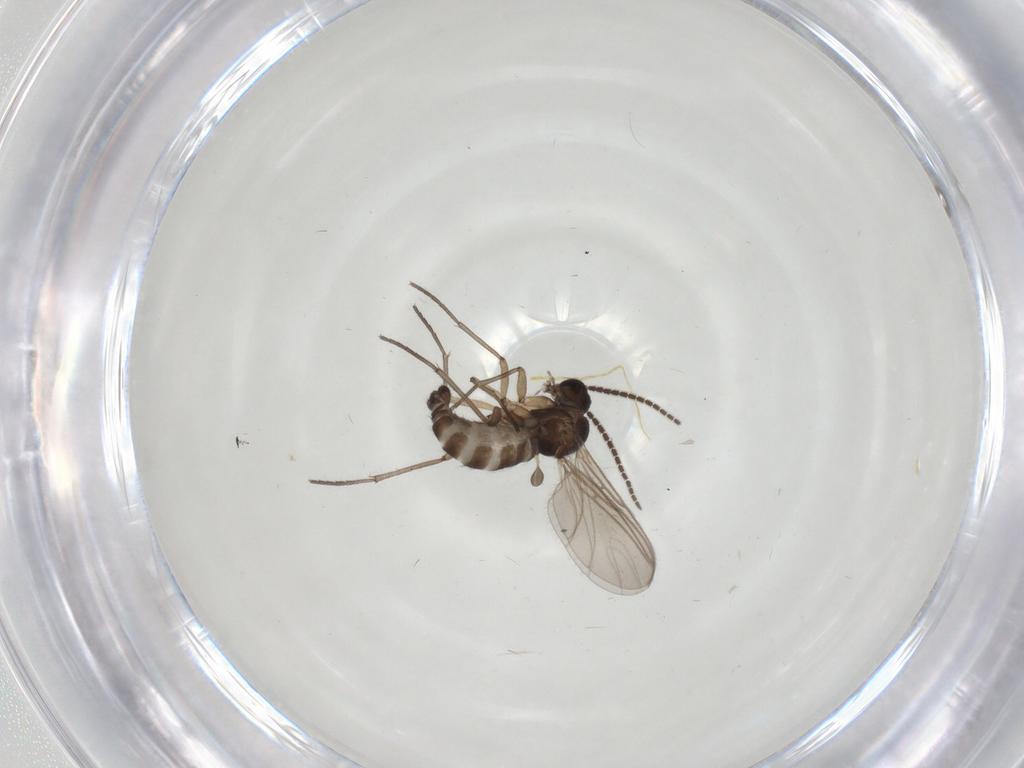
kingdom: Animalia
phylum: Arthropoda
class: Insecta
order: Diptera
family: Sciaridae
